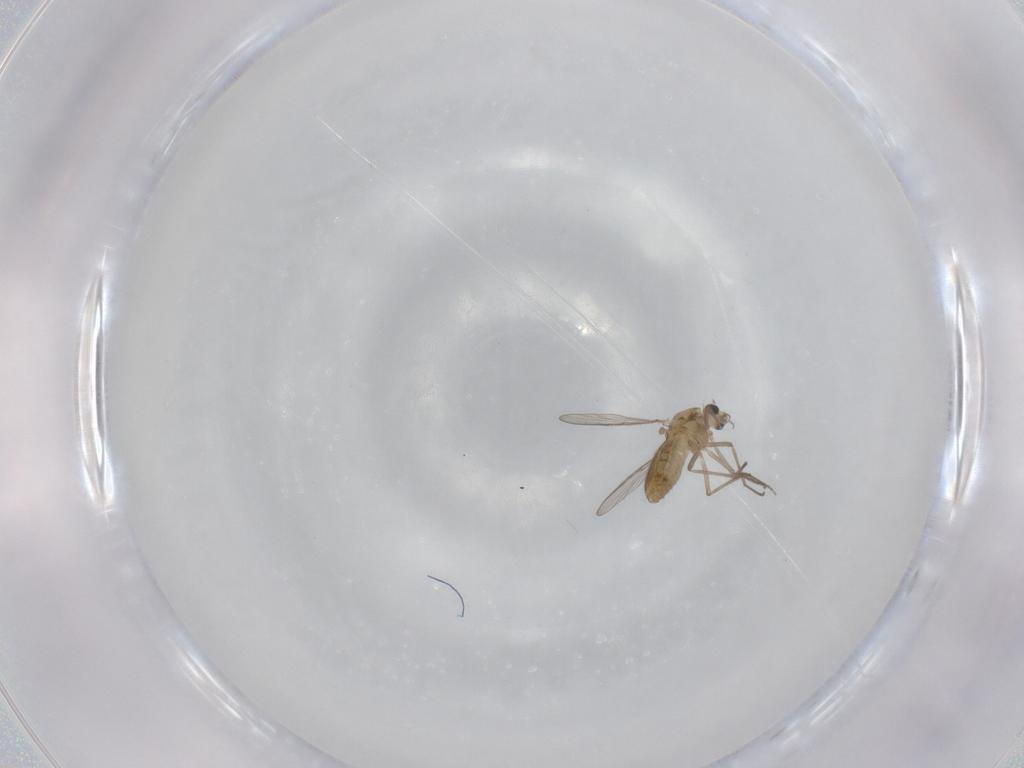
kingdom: Animalia
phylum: Arthropoda
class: Insecta
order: Diptera
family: Chironomidae
